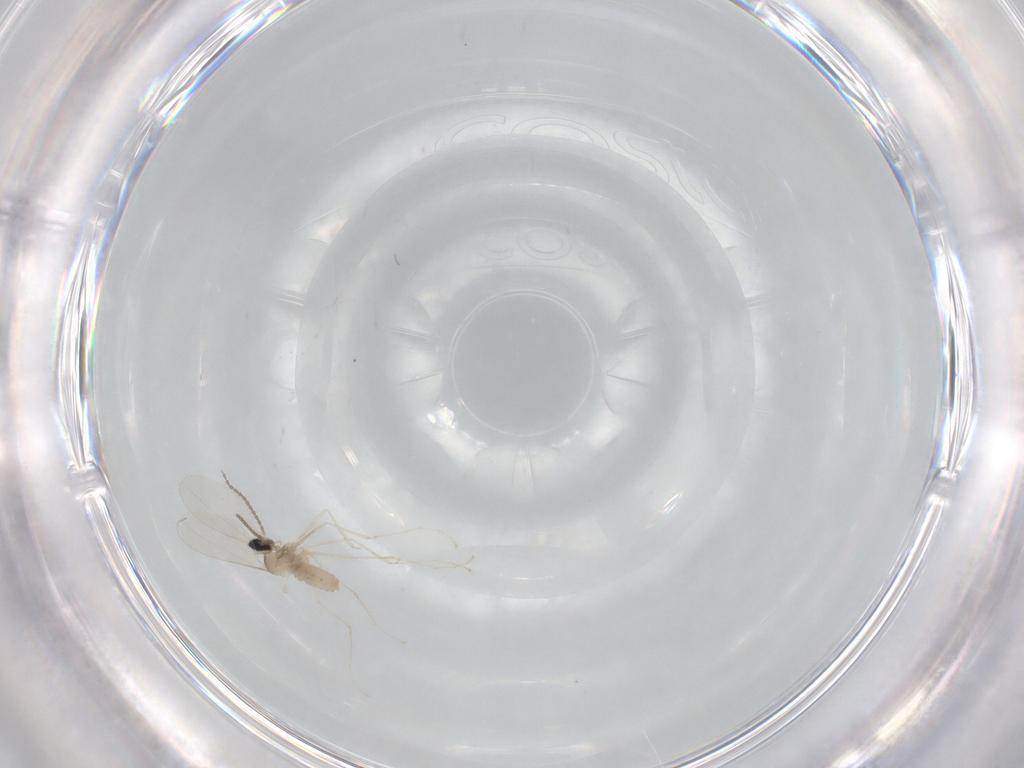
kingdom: Animalia
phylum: Arthropoda
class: Insecta
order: Diptera
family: Cecidomyiidae
